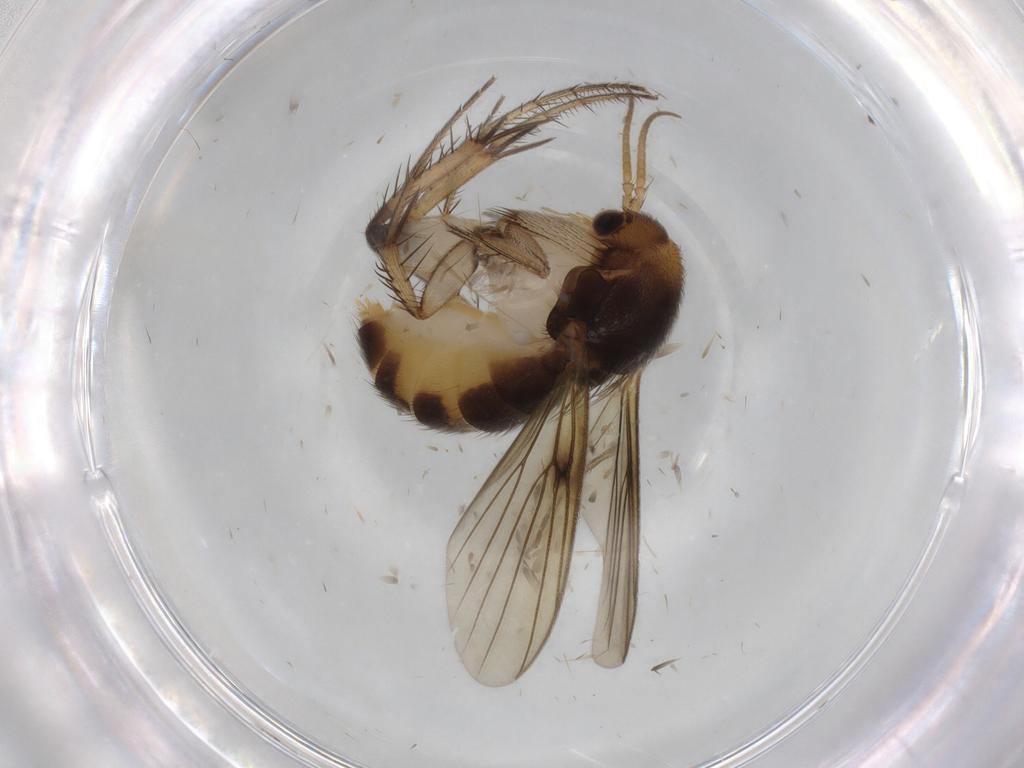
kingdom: Animalia
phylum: Arthropoda
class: Insecta
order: Diptera
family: Mycetophilidae
